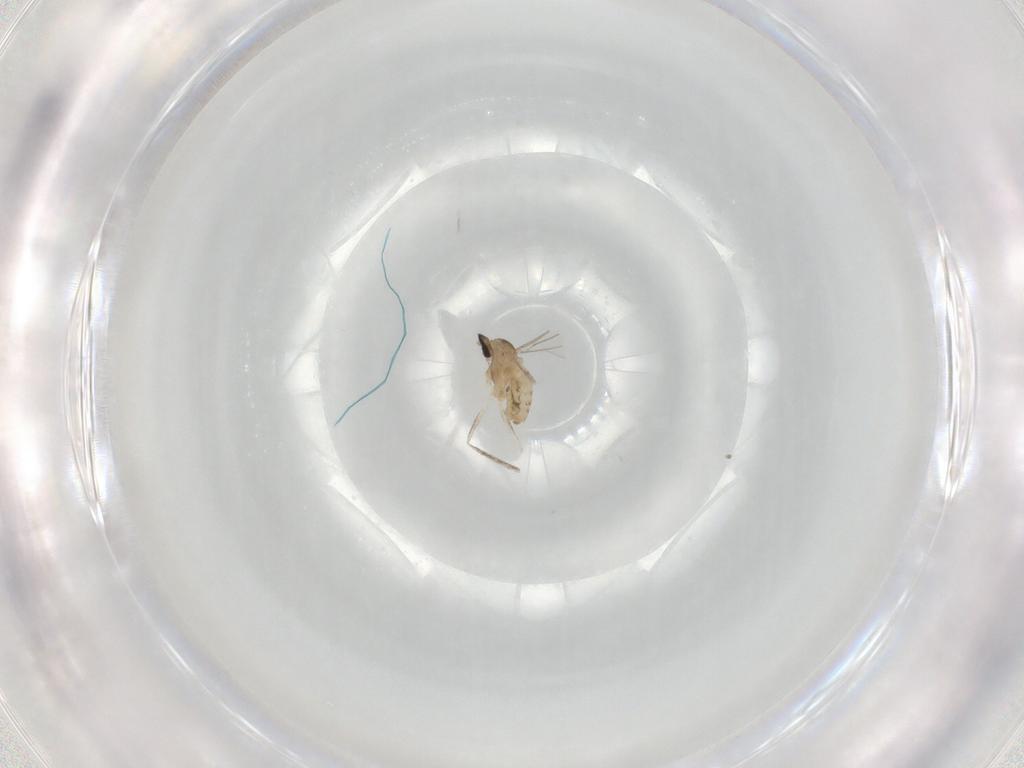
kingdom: Animalia
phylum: Arthropoda
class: Insecta
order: Diptera
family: Cecidomyiidae
